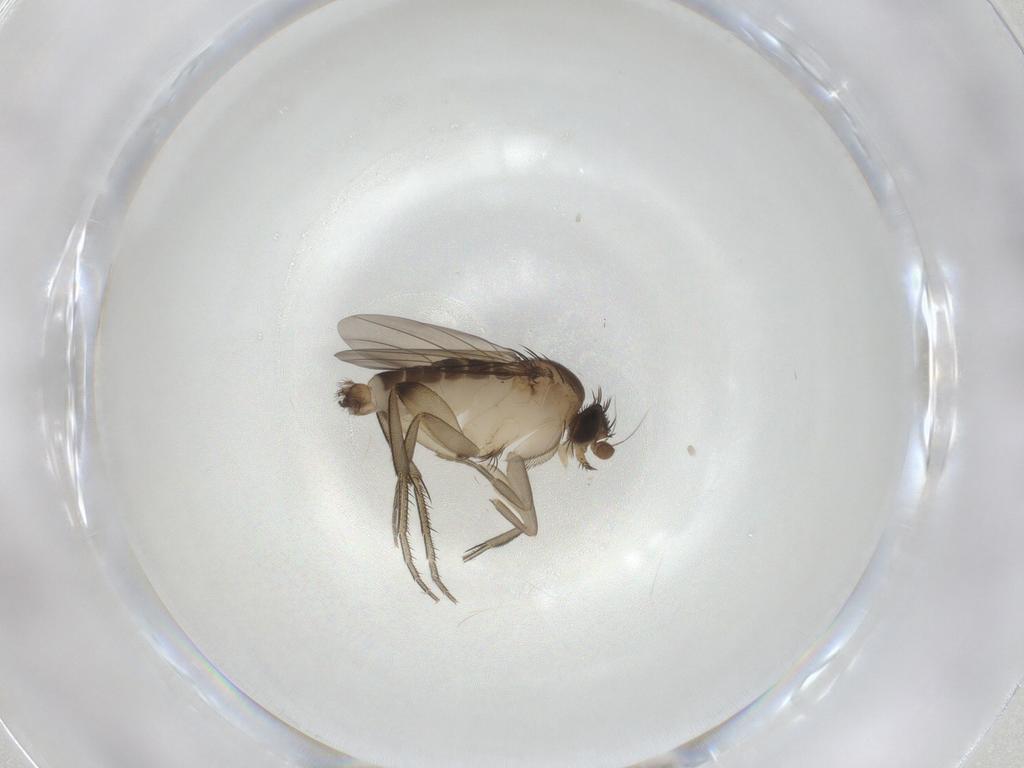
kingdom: Animalia
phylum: Arthropoda
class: Insecta
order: Diptera
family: Phoridae
